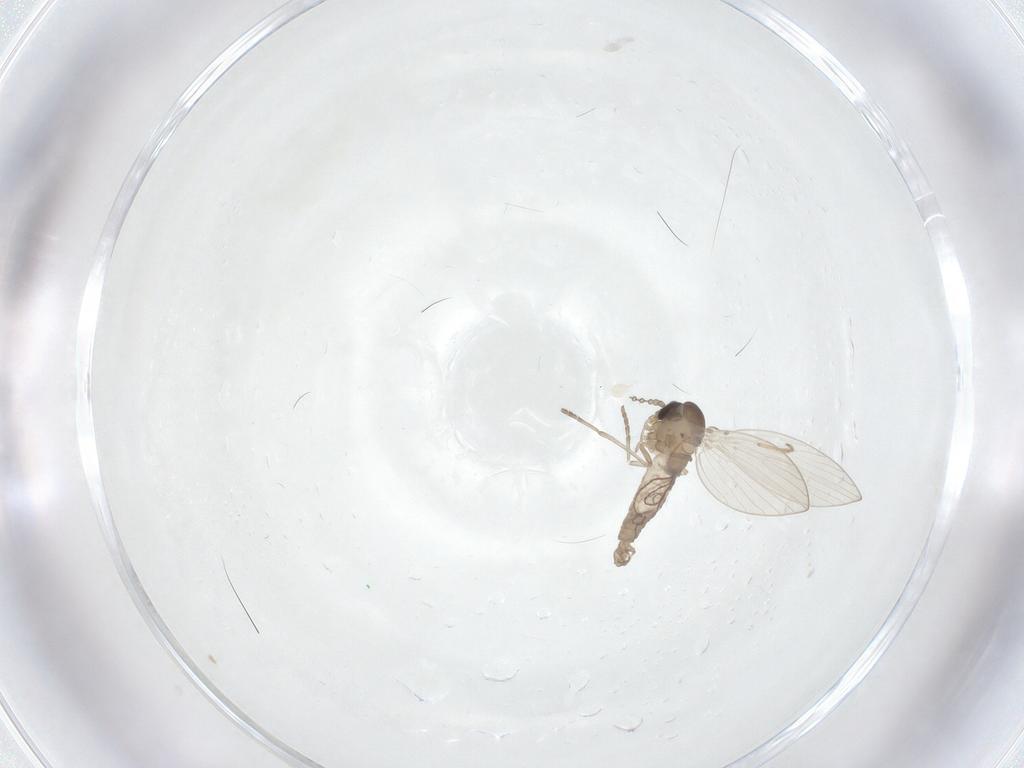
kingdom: Animalia
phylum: Arthropoda
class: Insecta
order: Diptera
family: Sciaridae
